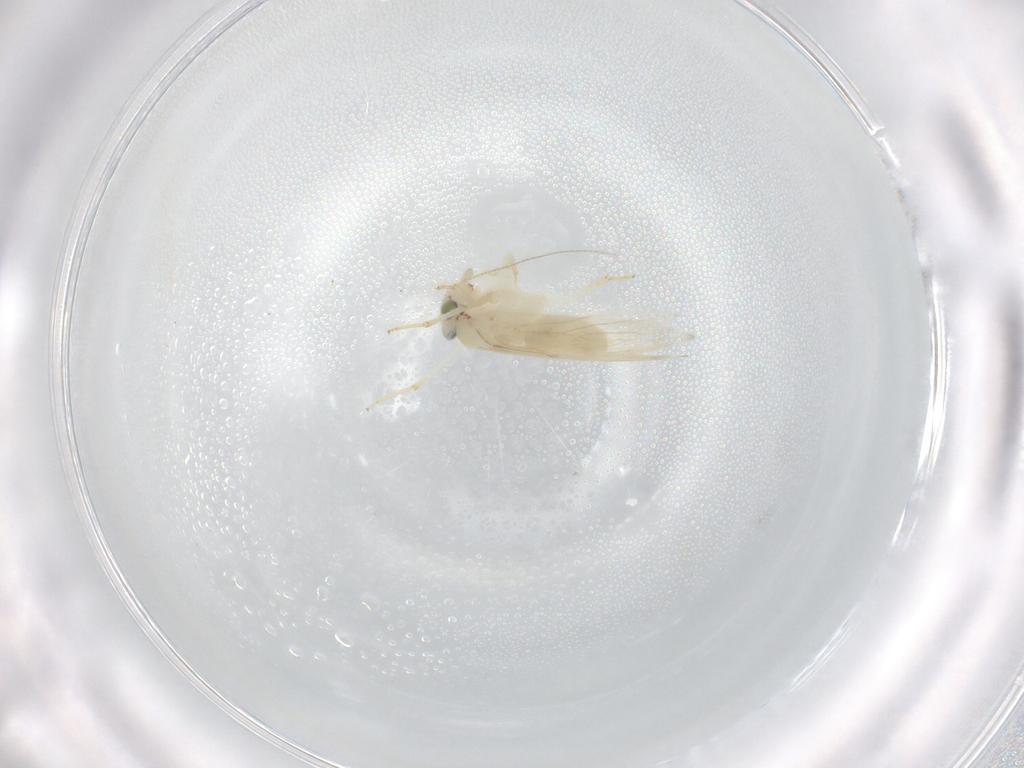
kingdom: Animalia
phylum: Arthropoda
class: Insecta
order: Psocodea
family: Lepidopsocidae
